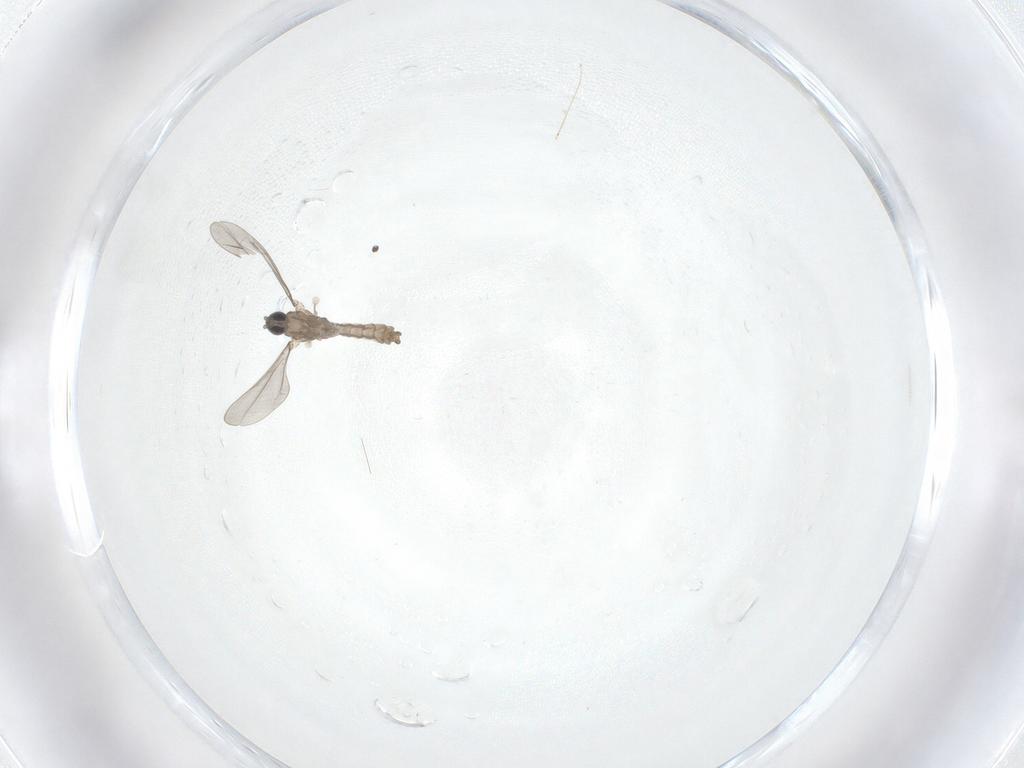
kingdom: Animalia
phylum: Arthropoda
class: Insecta
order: Diptera
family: Cecidomyiidae
